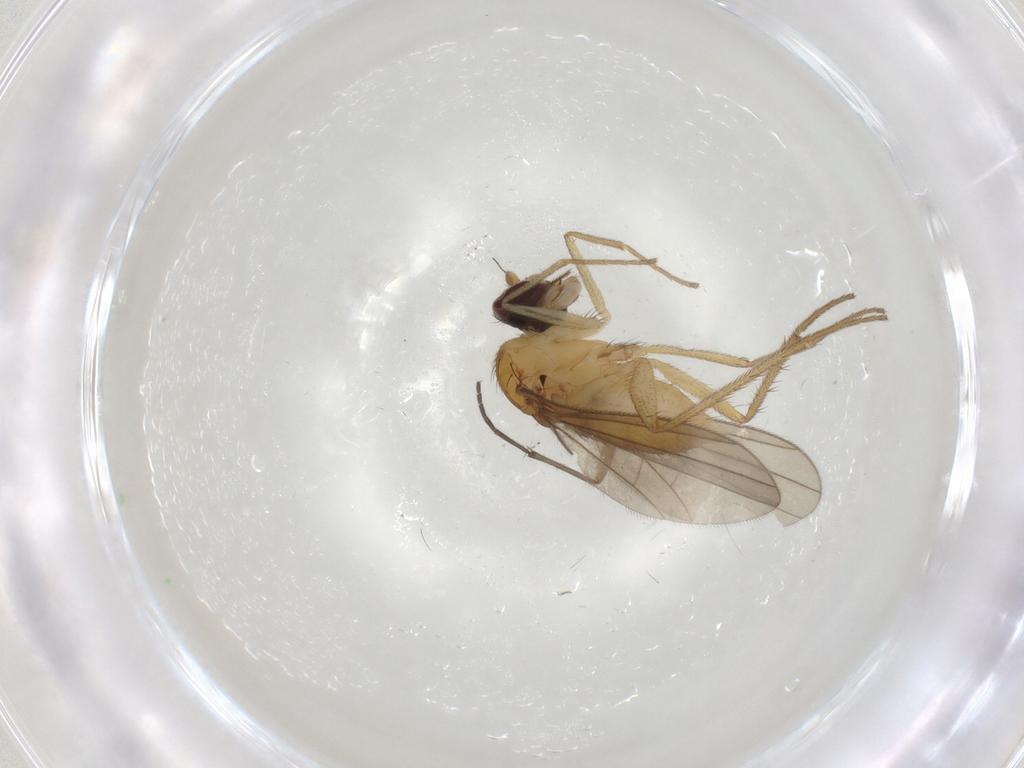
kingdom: Animalia
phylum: Arthropoda
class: Insecta
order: Diptera
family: Dolichopodidae
